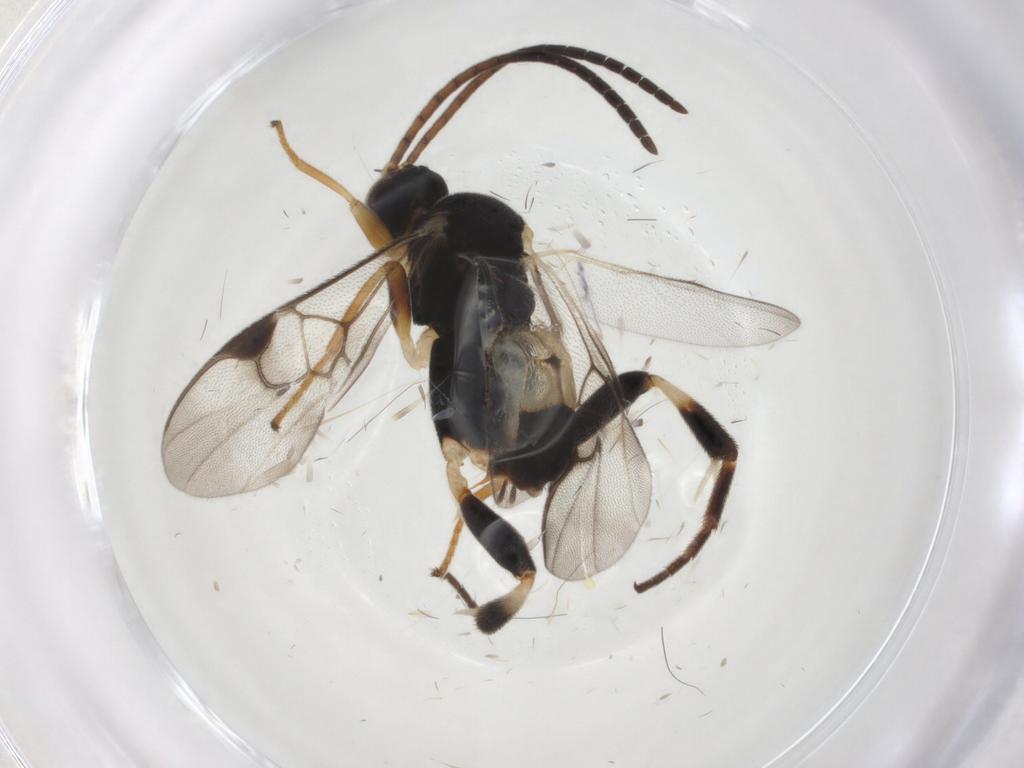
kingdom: Animalia
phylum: Arthropoda
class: Insecta
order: Hymenoptera
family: Braconidae
